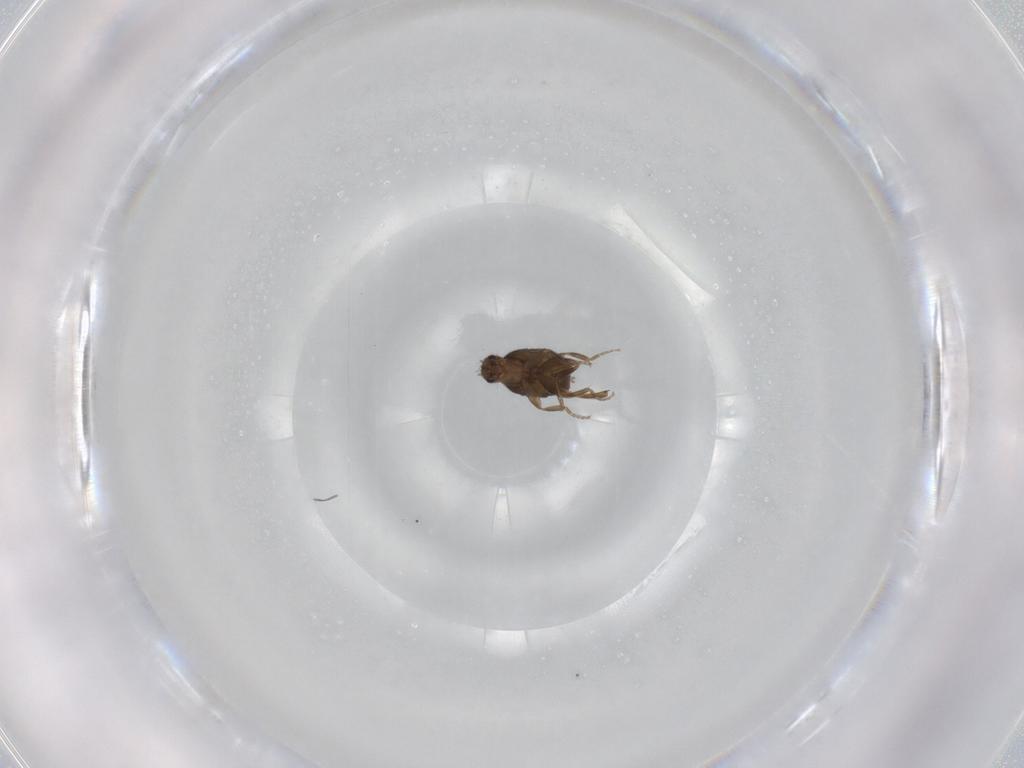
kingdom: Animalia
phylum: Arthropoda
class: Insecta
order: Diptera
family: Phoridae
